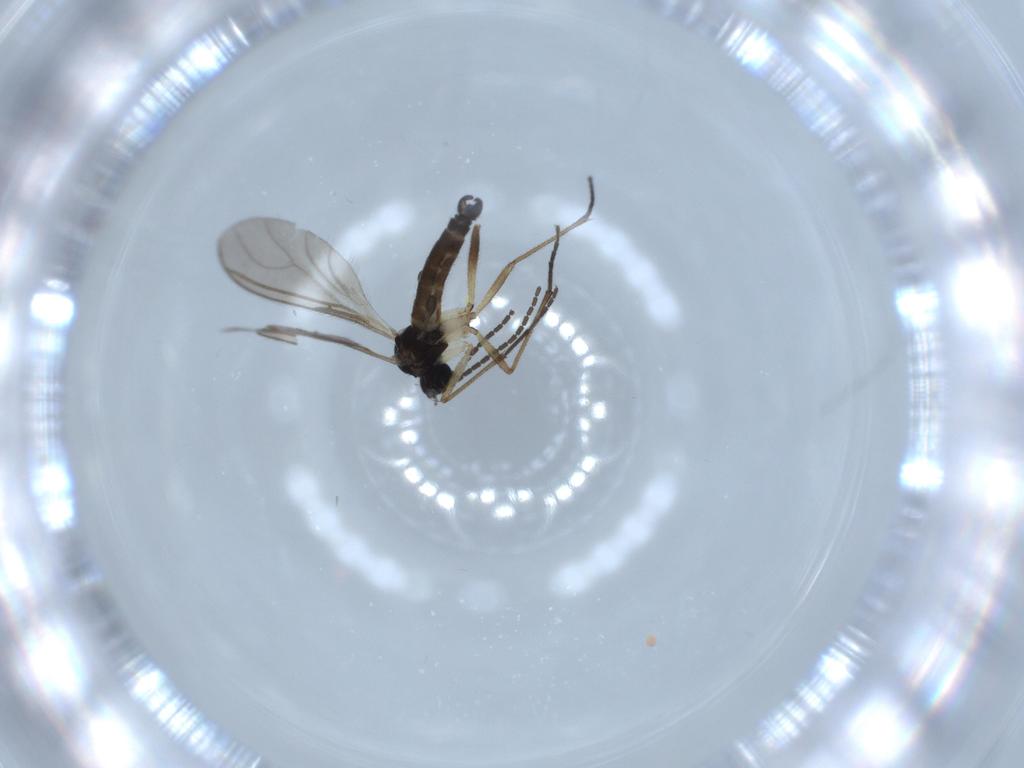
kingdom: Animalia
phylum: Arthropoda
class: Insecta
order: Diptera
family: Sciaridae
